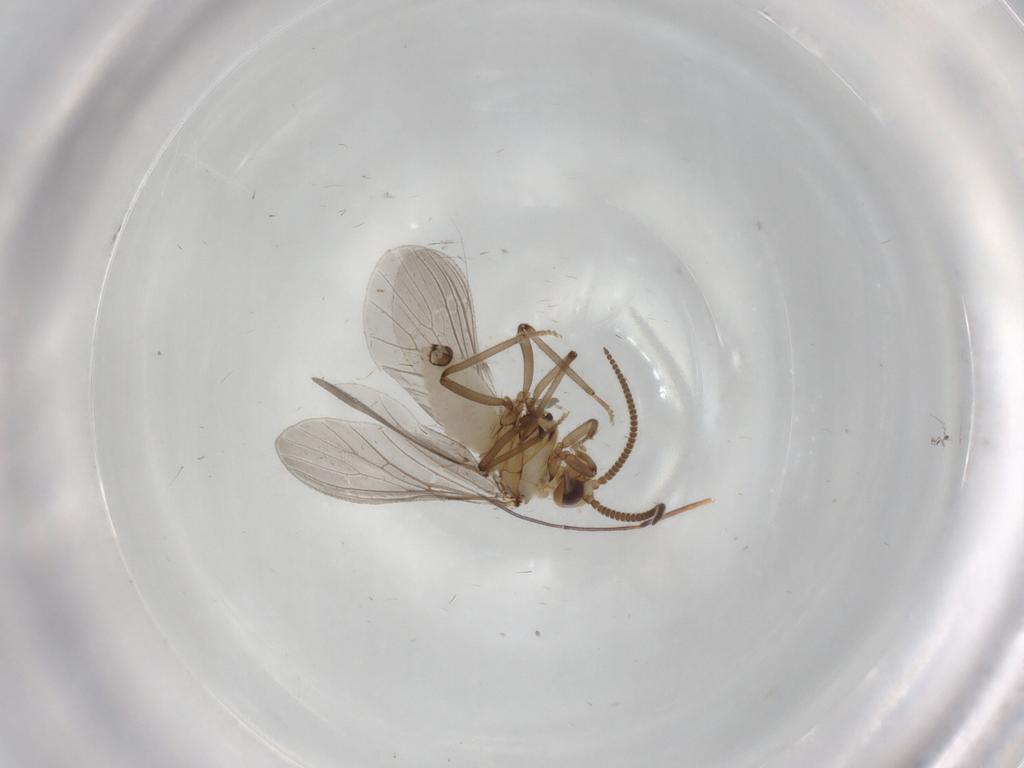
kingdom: Animalia
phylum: Arthropoda
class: Insecta
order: Neuroptera
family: Coniopterygidae
